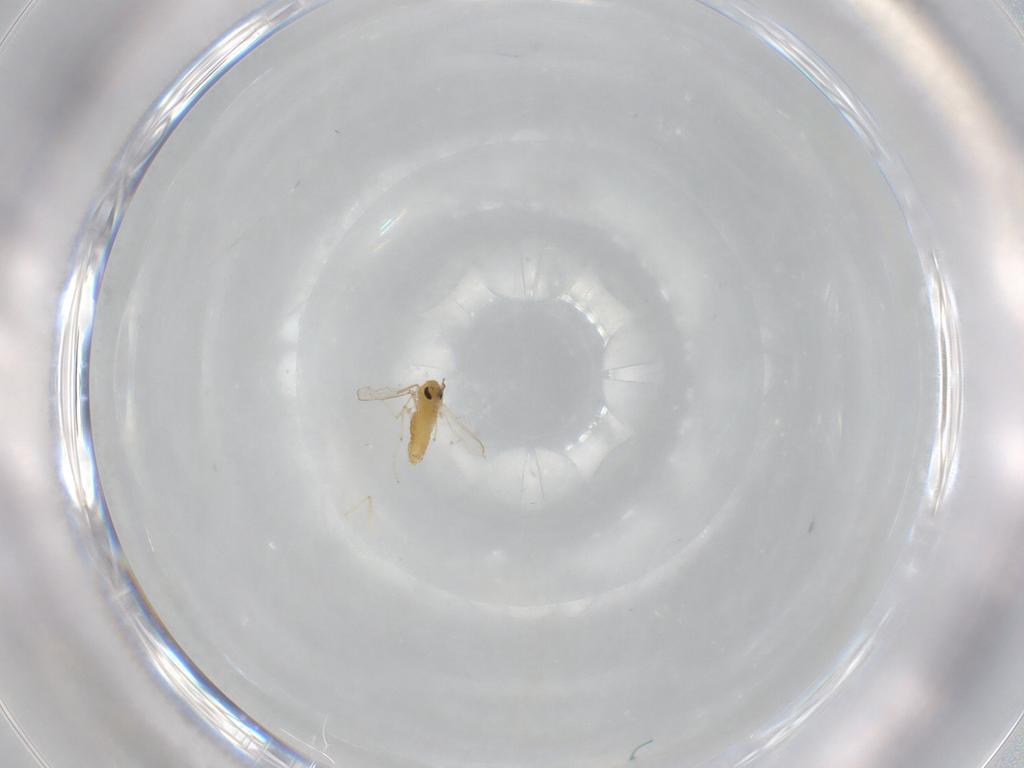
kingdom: Animalia
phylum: Arthropoda
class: Insecta
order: Diptera
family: Chironomidae
